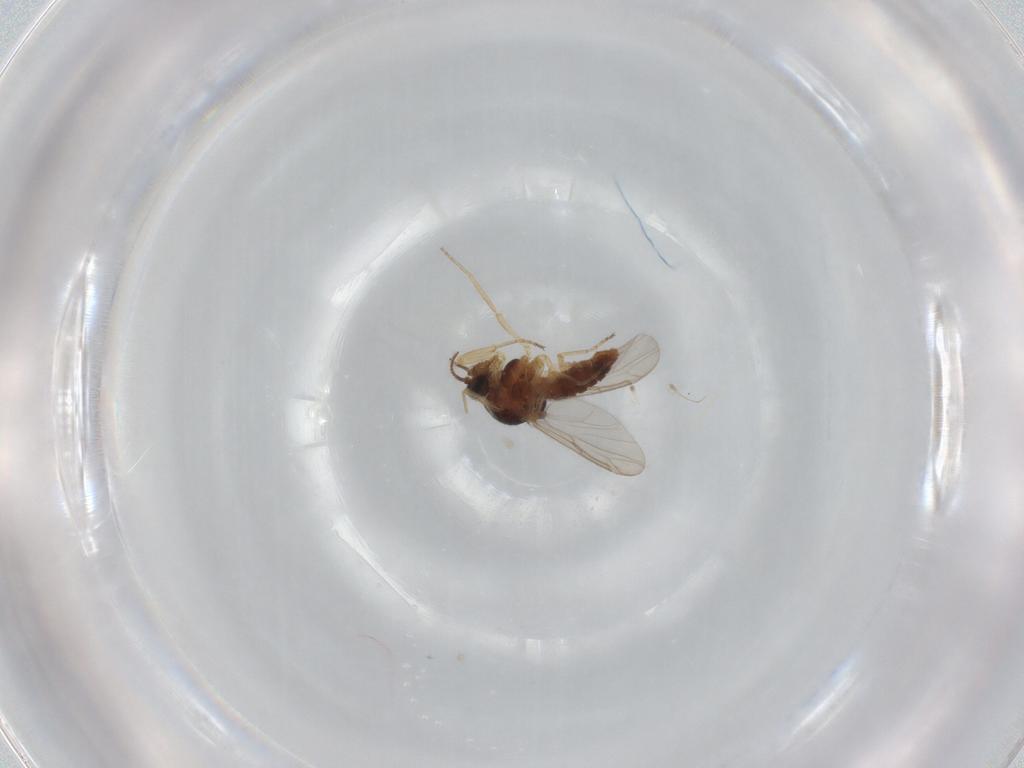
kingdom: Animalia
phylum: Arthropoda
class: Insecta
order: Diptera
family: Ceratopogonidae
